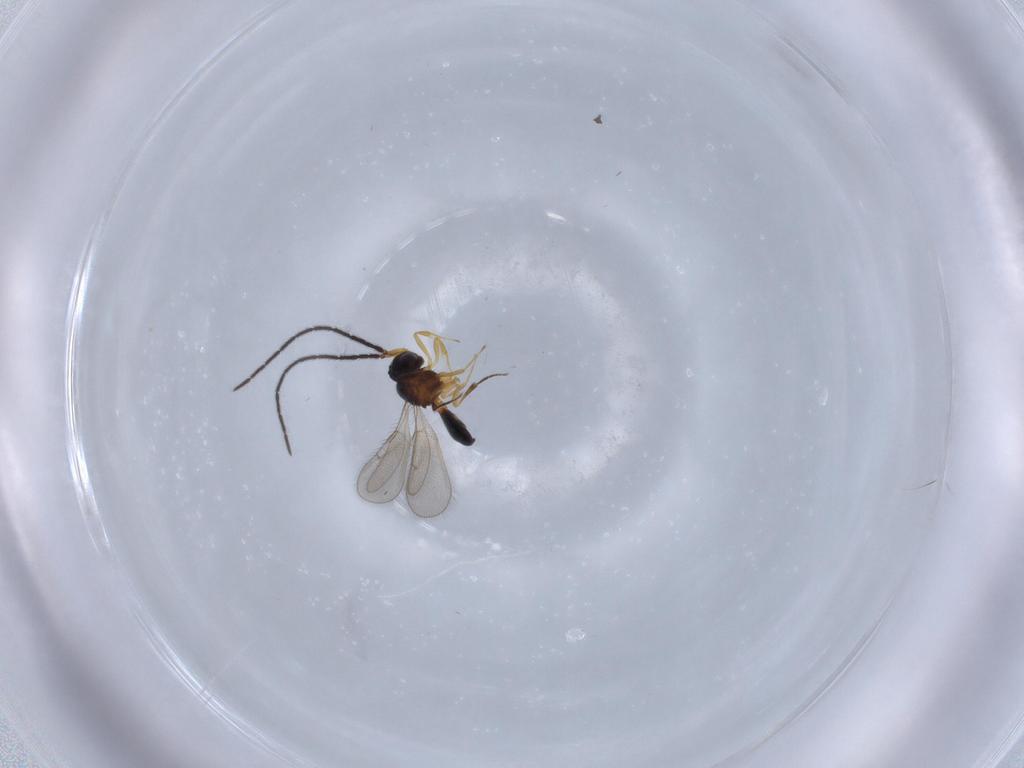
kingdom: Animalia
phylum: Arthropoda
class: Insecta
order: Hymenoptera
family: Scelionidae
